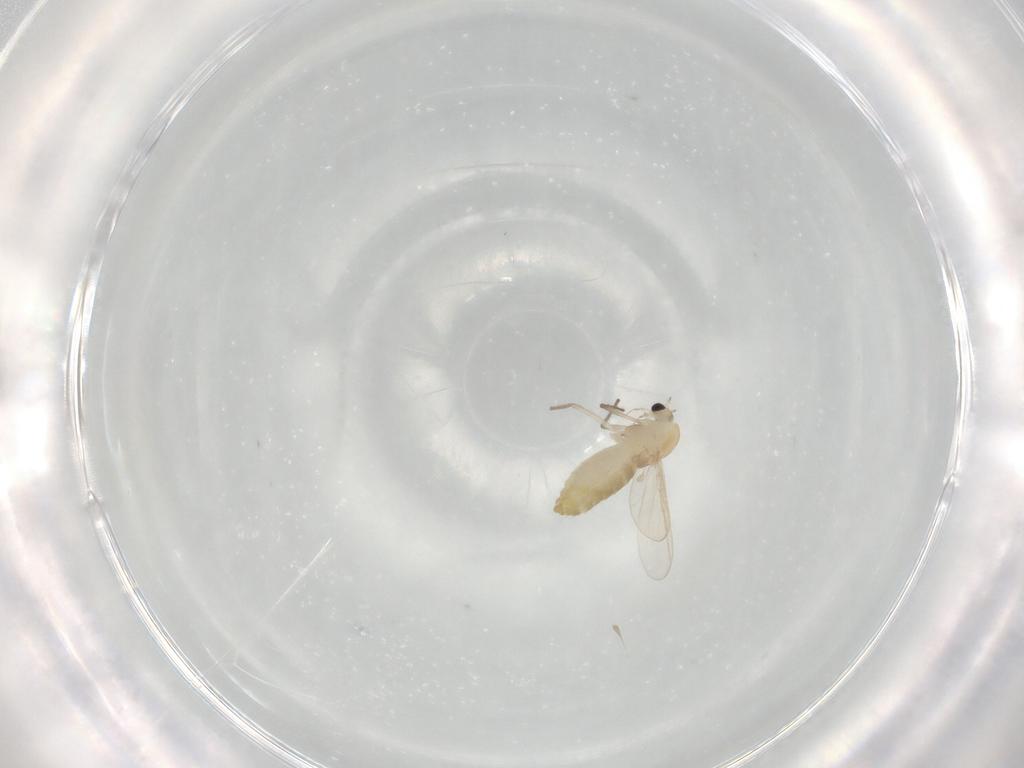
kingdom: Animalia
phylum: Arthropoda
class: Insecta
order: Diptera
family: Chironomidae
